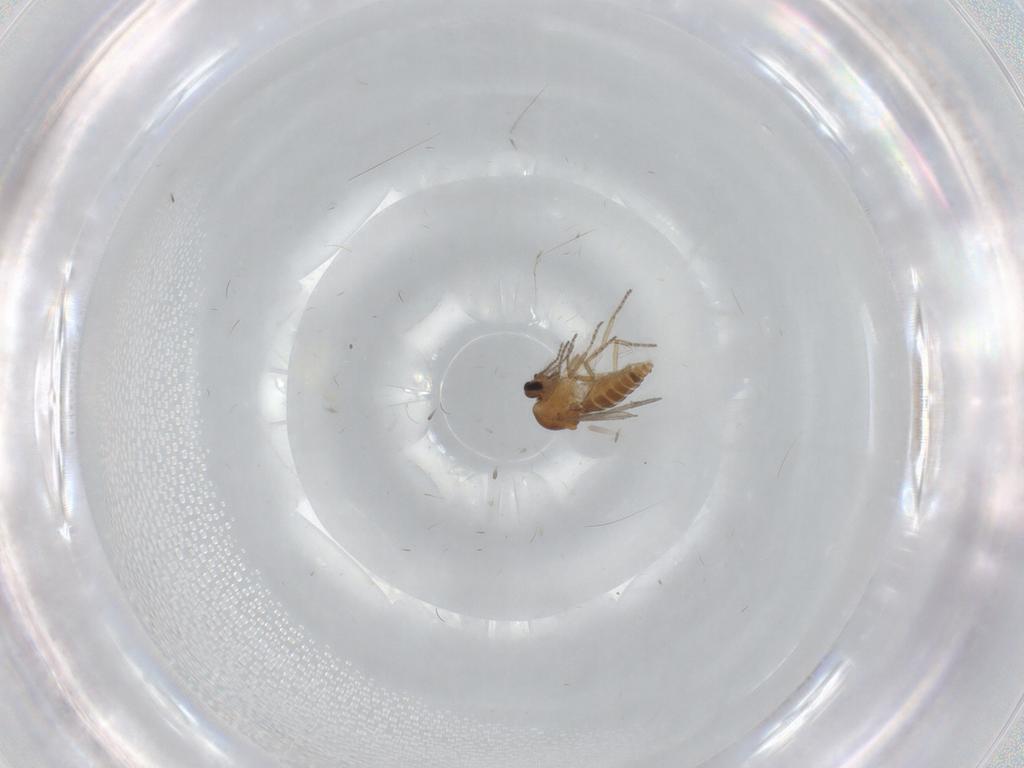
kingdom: Animalia
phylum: Arthropoda
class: Insecta
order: Diptera
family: Ceratopogonidae
